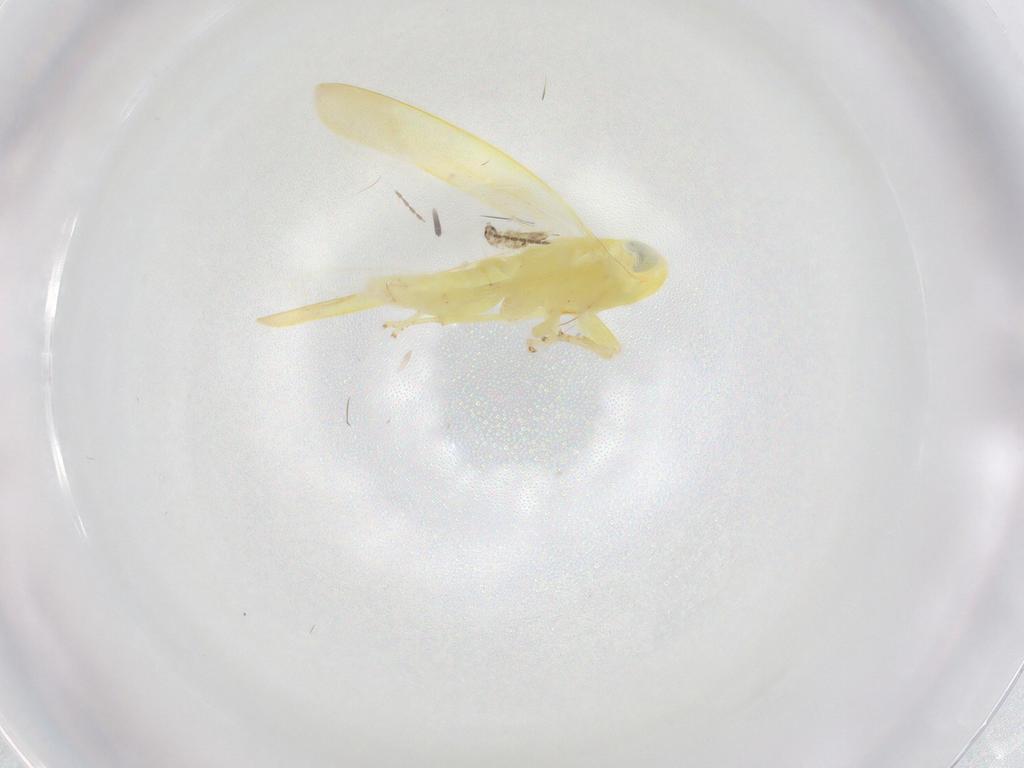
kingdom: Animalia
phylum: Arthropoda
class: Insecta
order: Hemiptera
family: Cicadellidae
